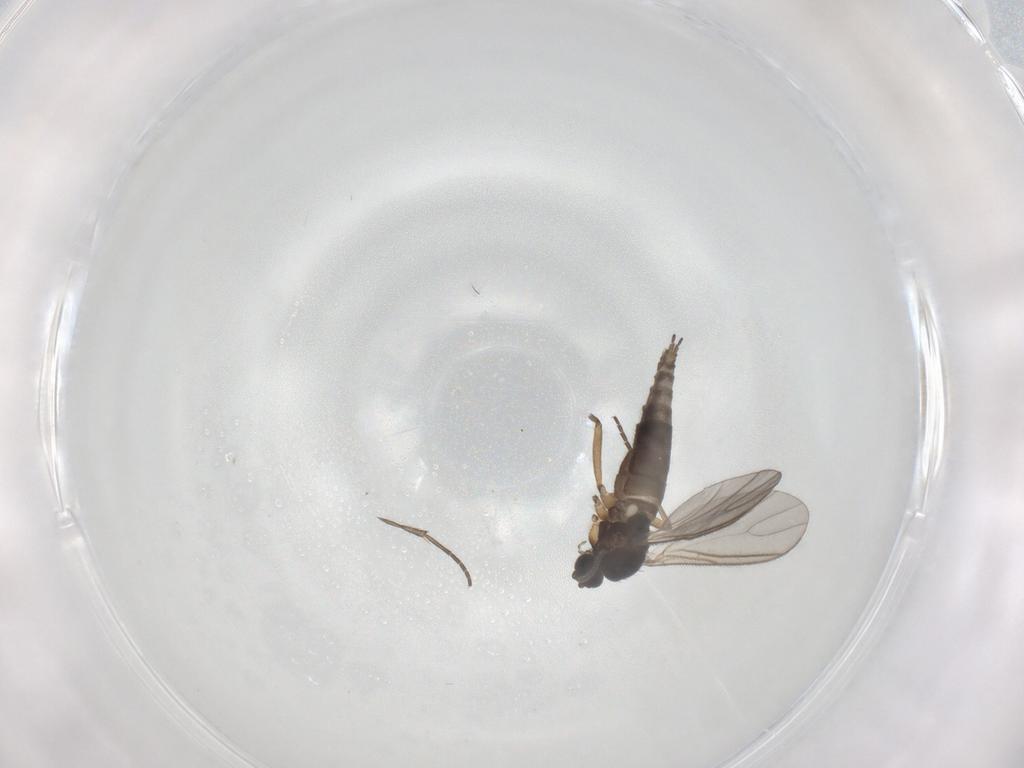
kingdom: Animalia
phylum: Arthropoda
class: Insecta
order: Diptera
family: Sciaridae
